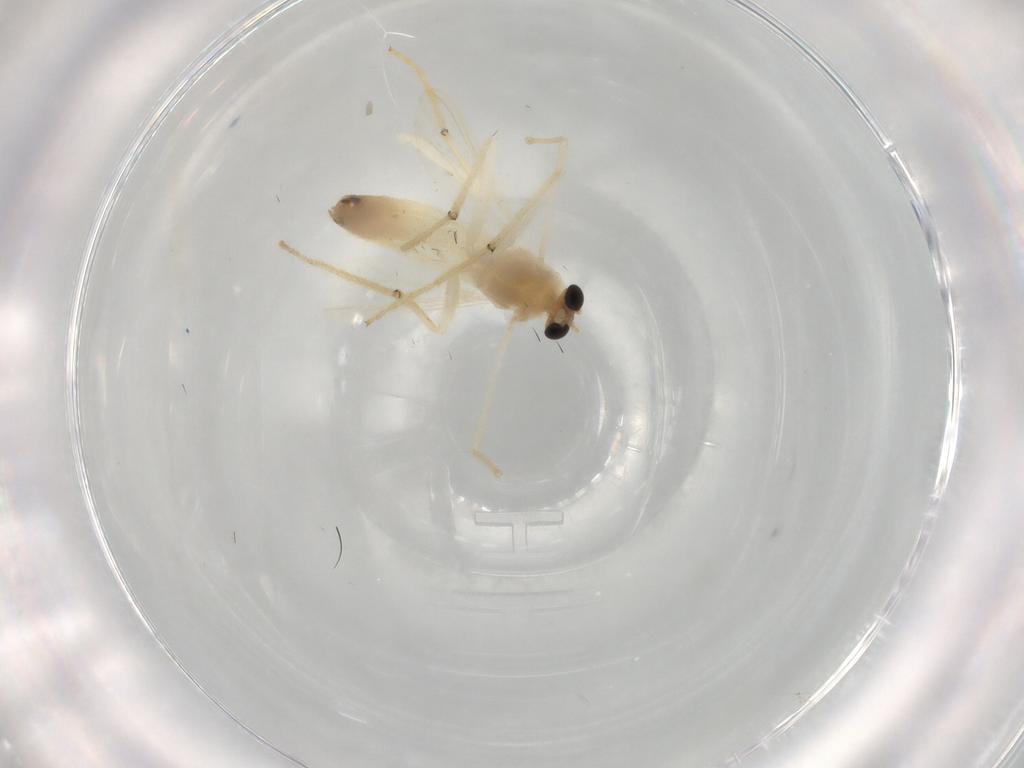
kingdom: Animalia
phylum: Arthropoda
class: Insecta
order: Diptera
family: Chironomidae
